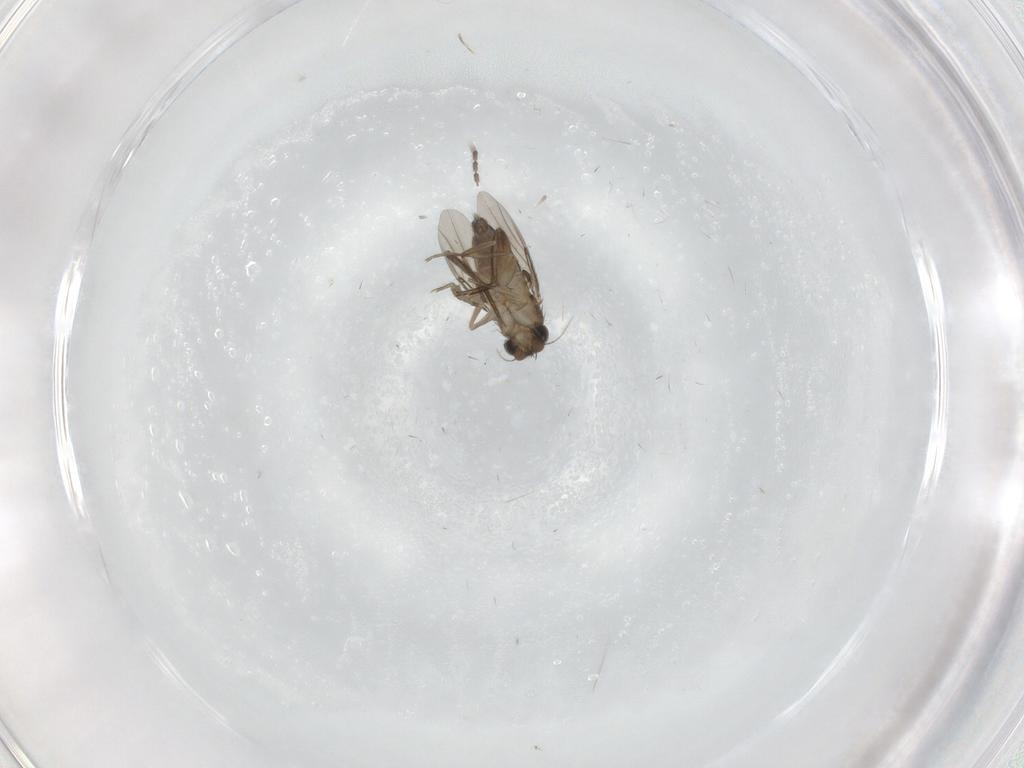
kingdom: Animalia
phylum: Arthropoda
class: Insecta
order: Diptera
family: Phoridae
